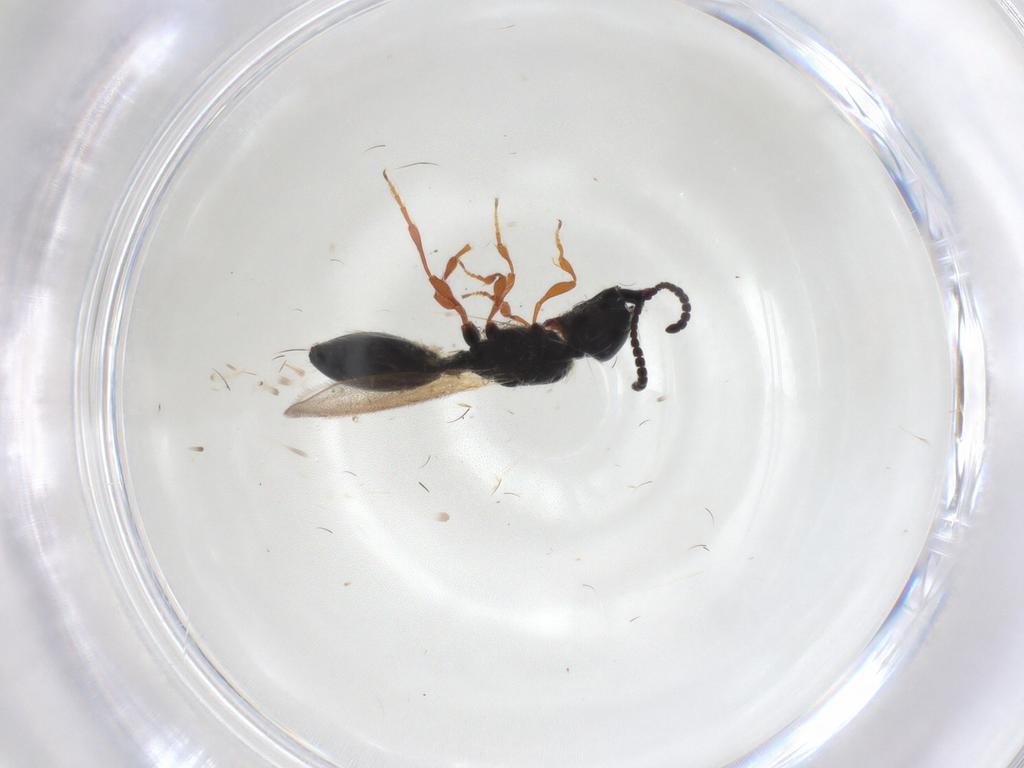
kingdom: Animalia
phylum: Arthropoda
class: Insecta
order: Hymenoptera
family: Diapriidae
